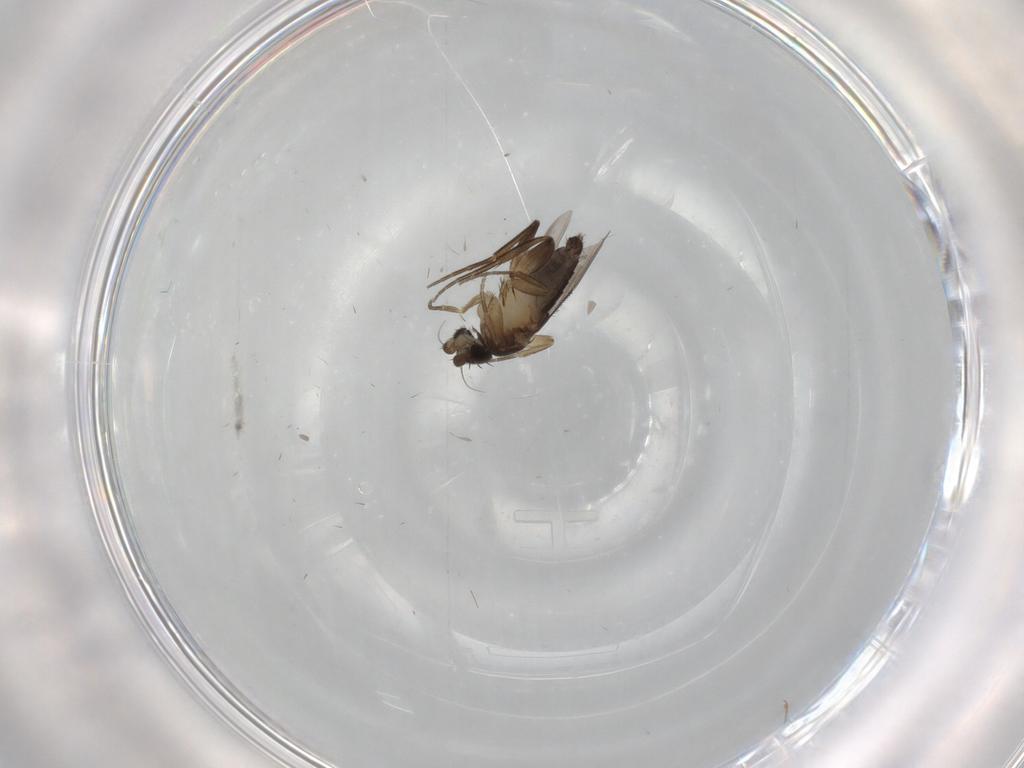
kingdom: Animalia
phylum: Arthropoda
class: Insecta
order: Diptera
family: Phoridae
